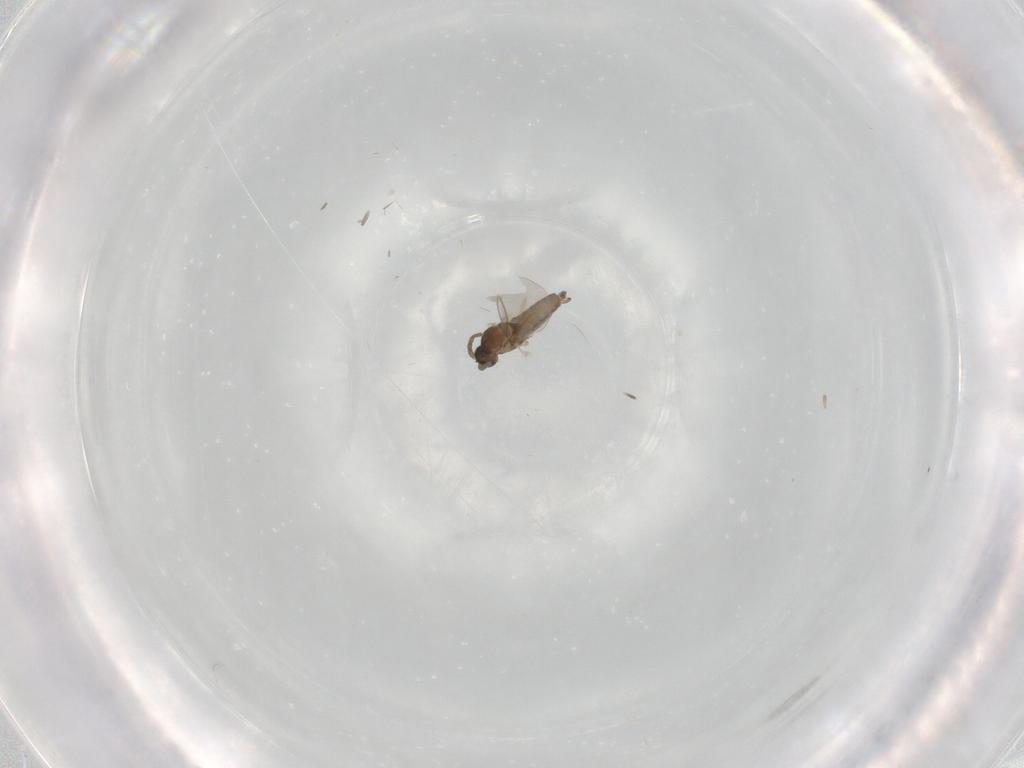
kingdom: Animalia
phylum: Arthropoda
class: Insecta
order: Diptera
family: Cecidomyiidae
